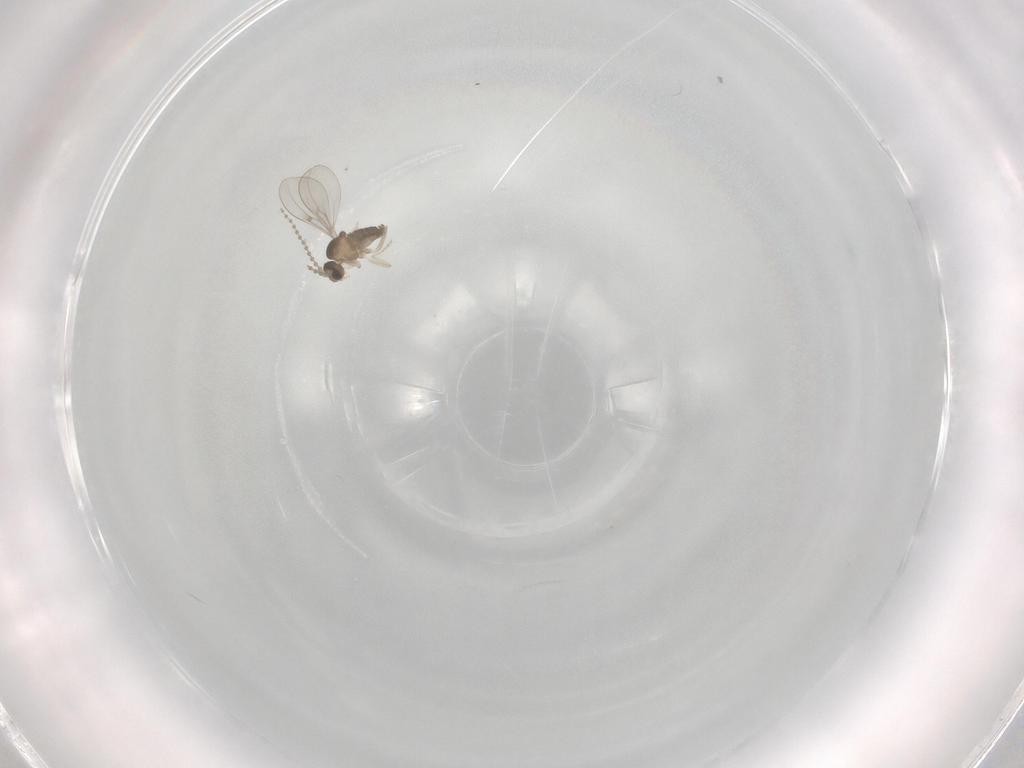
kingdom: Animalia
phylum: Arthropoda
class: Insecta
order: Diptera
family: Cecidomyiidae
